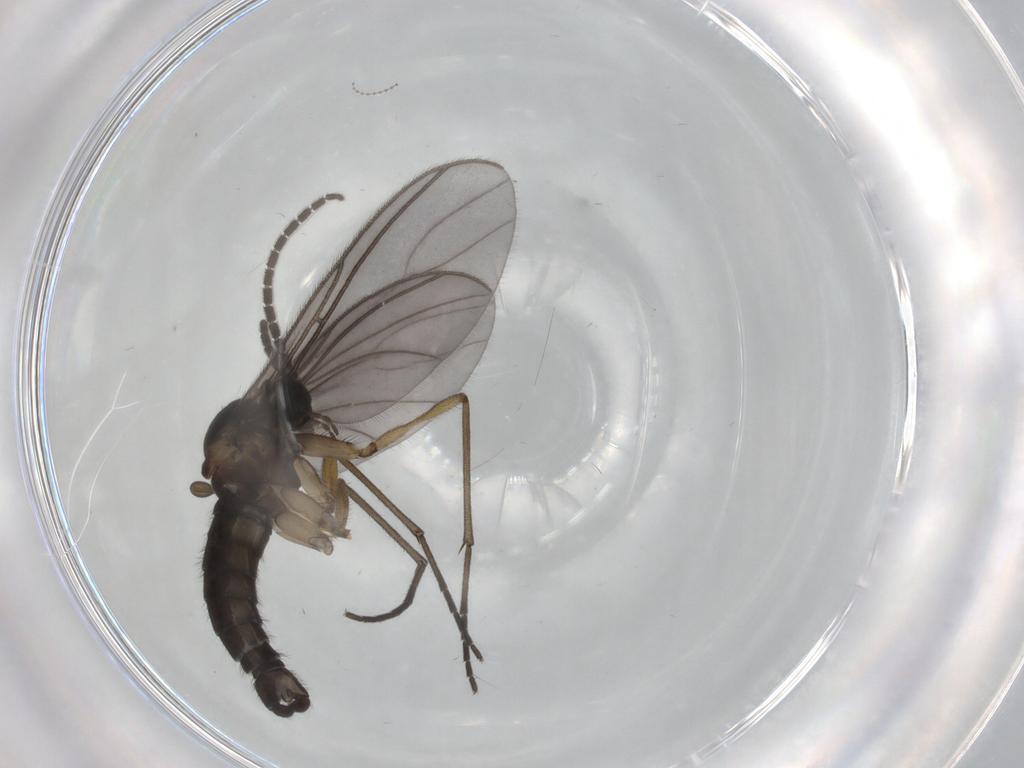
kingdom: Animalia
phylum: Arthropoda
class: Insecta
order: Diptera
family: Sciaridae
